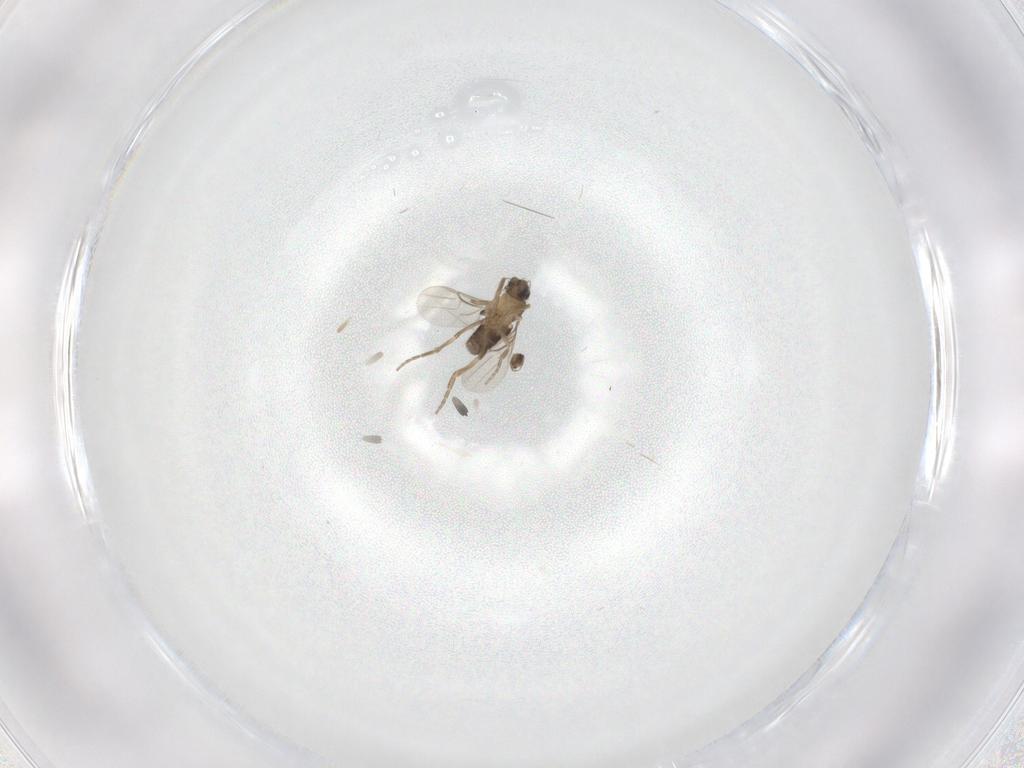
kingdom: Animalia
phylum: Arthropoda
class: Insecta
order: Diptera
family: Phoridae
